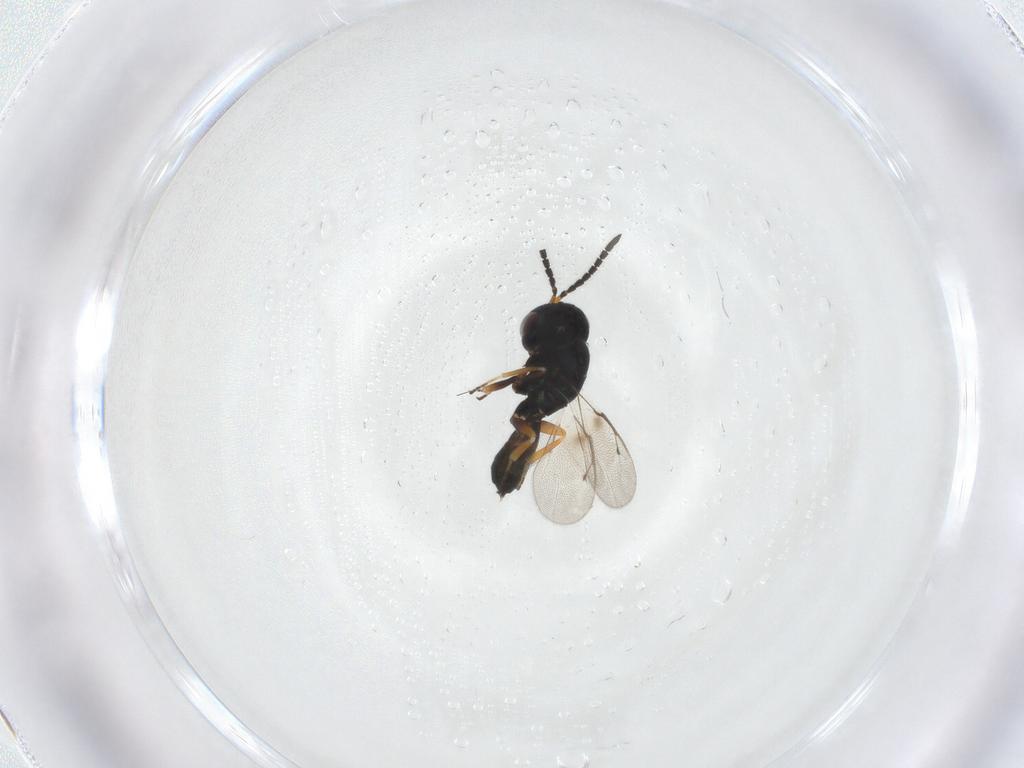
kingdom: Animalia
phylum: Arthropoda
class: Insecta
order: Hymenoptera
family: Pteromalidae
